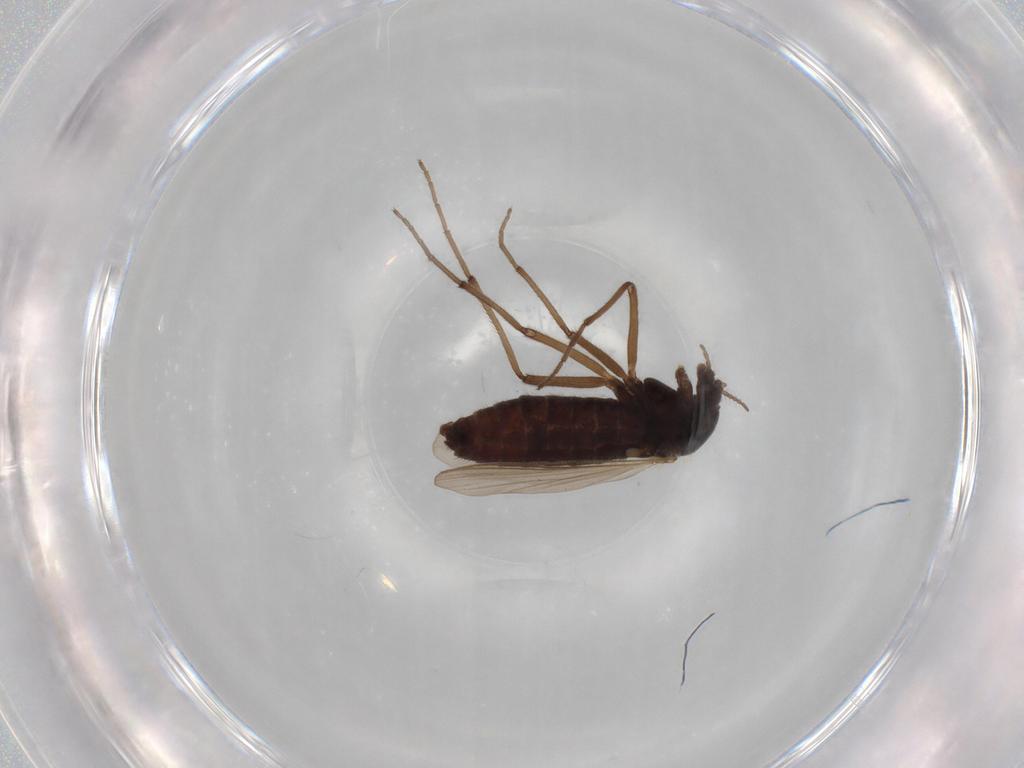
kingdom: Animalia
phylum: Arthropoda
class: Insecta
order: Diptera
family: Chironomidae
